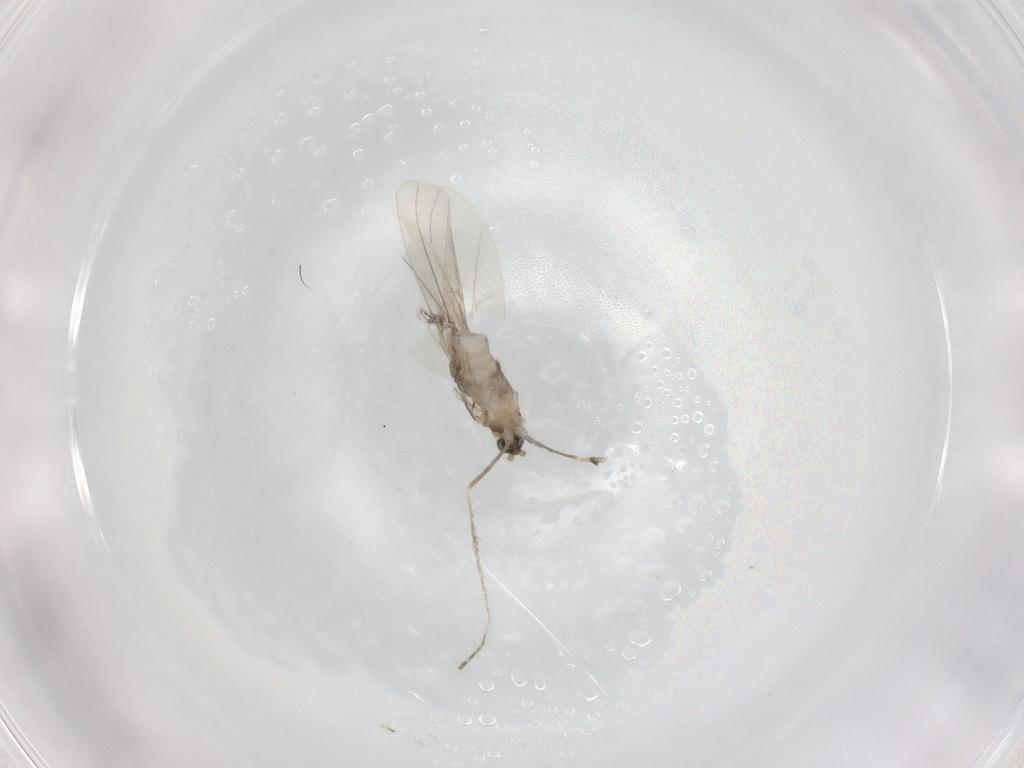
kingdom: Animalia
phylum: Arthropoda
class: Insecta
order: Diptera
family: Cecidomyiidae
